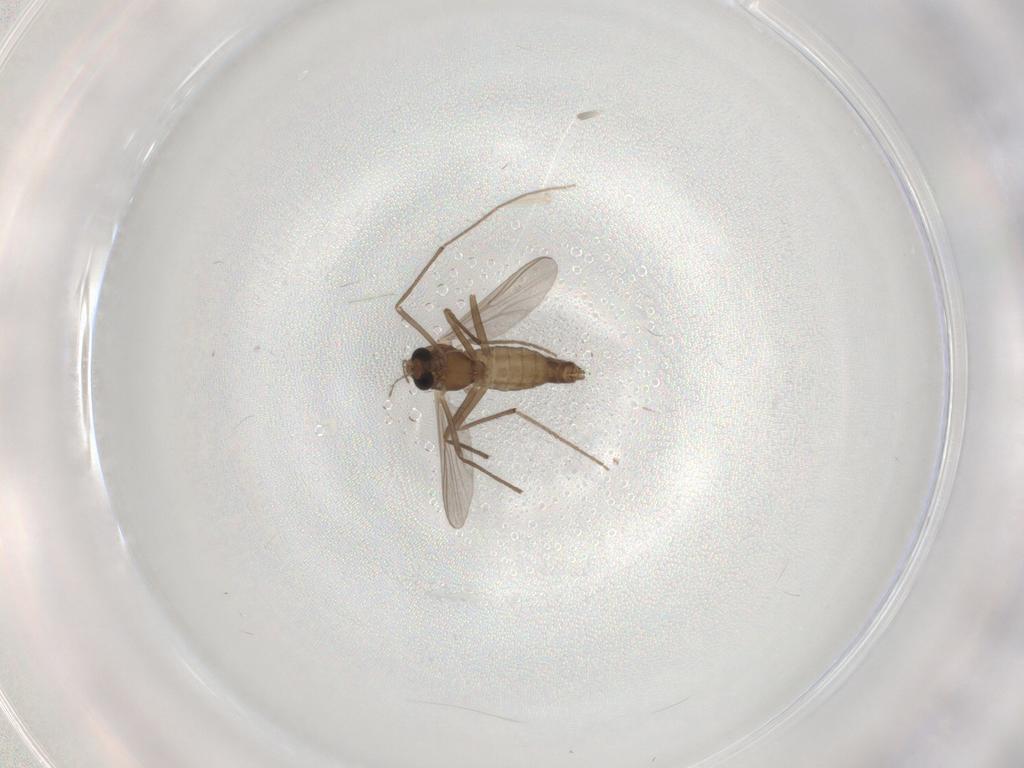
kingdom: Animalia
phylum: Arthropoda
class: Insecta
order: Diptera
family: Chironomidae
